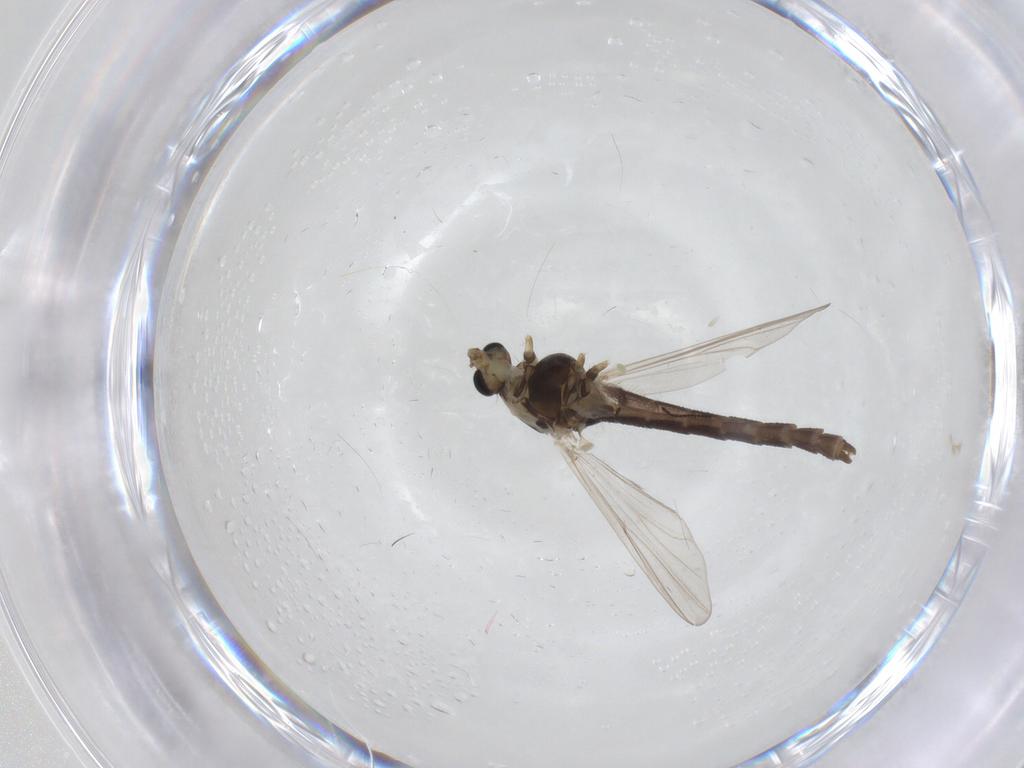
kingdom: Animalia
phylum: Arthropoda
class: Insecta
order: Diptera
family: Chironomidae
